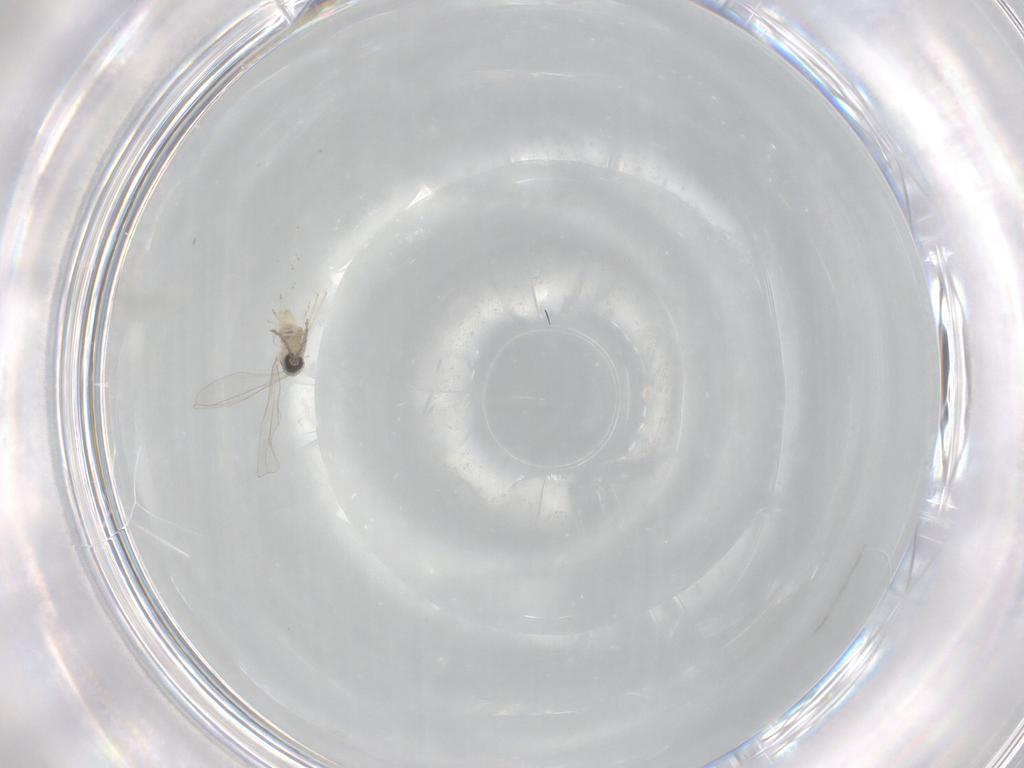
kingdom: Animalia
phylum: Arthropoda
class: Insecta
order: Diptera
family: Cecidomyiidae
